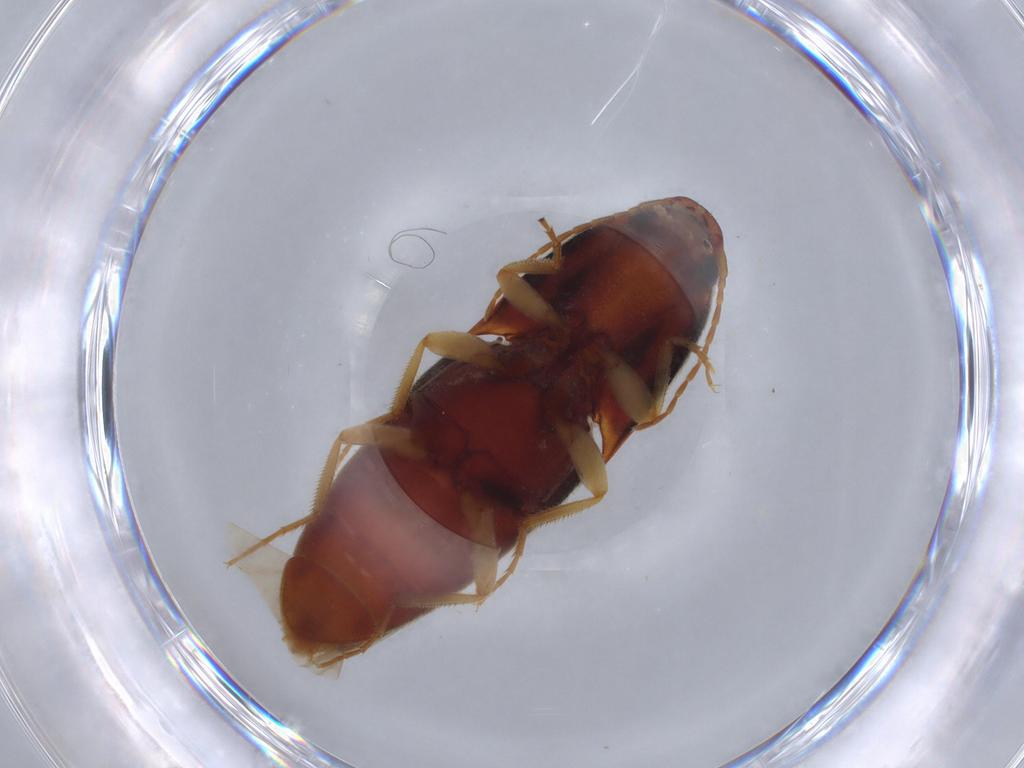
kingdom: Animalia
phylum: Arthropoda
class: Insecta
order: Coleoptera
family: Elateridae
